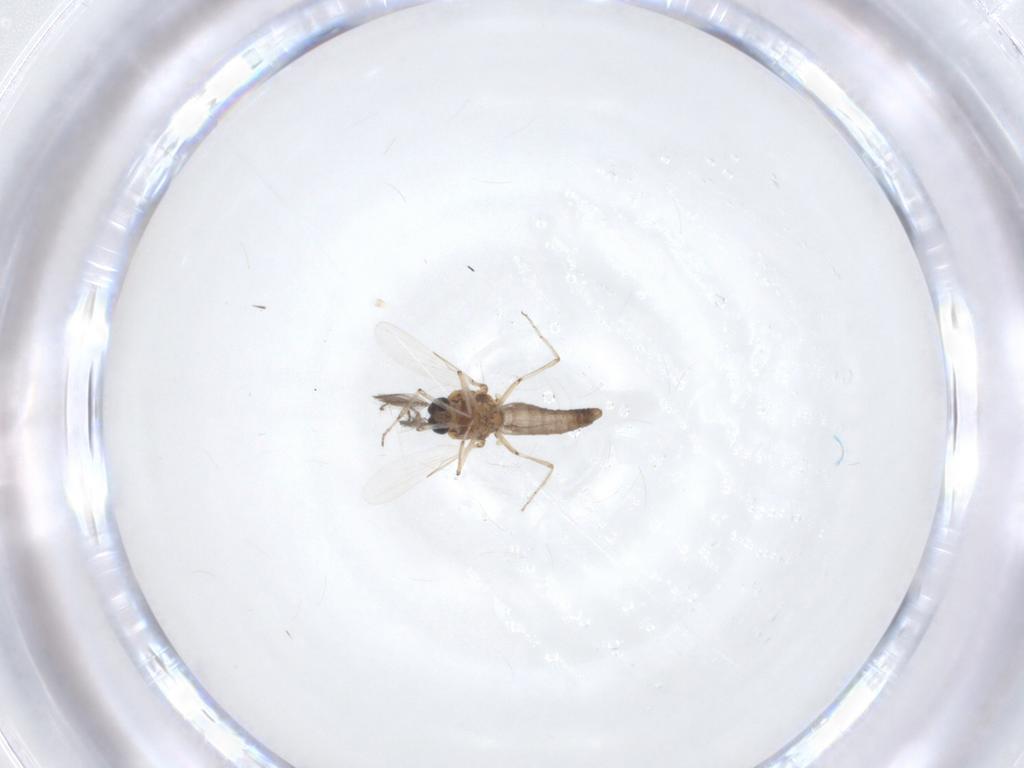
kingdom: Animalia
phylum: Arthropoda
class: Insecta
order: Diptera
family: Ceratopogonidae
